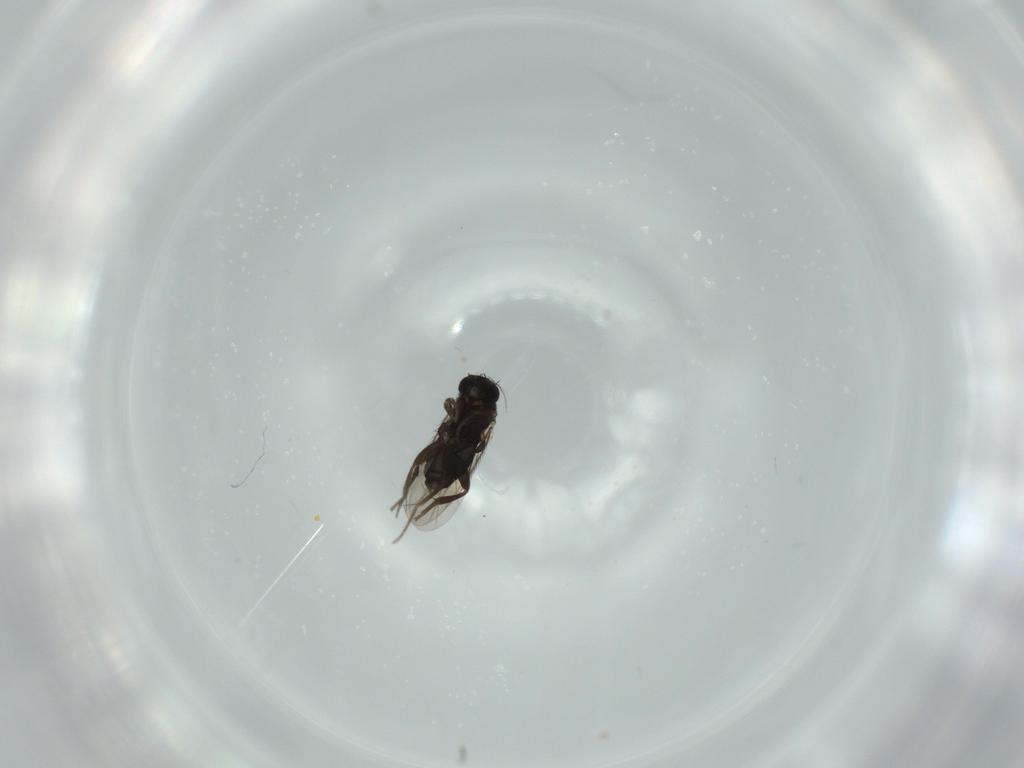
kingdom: Animalia
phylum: Arthropoda
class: Insecta
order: Diptera
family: Phoridae
